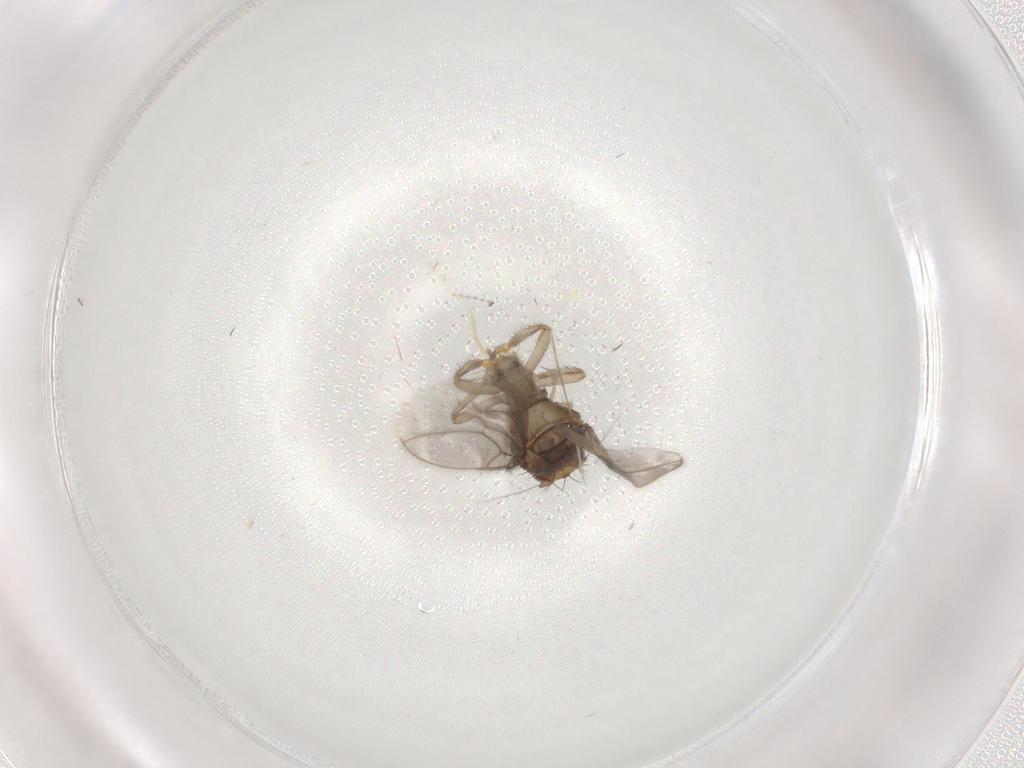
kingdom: Animalia
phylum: Arthropoda
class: Insecta
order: Diptera
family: Sphaeroceridae
